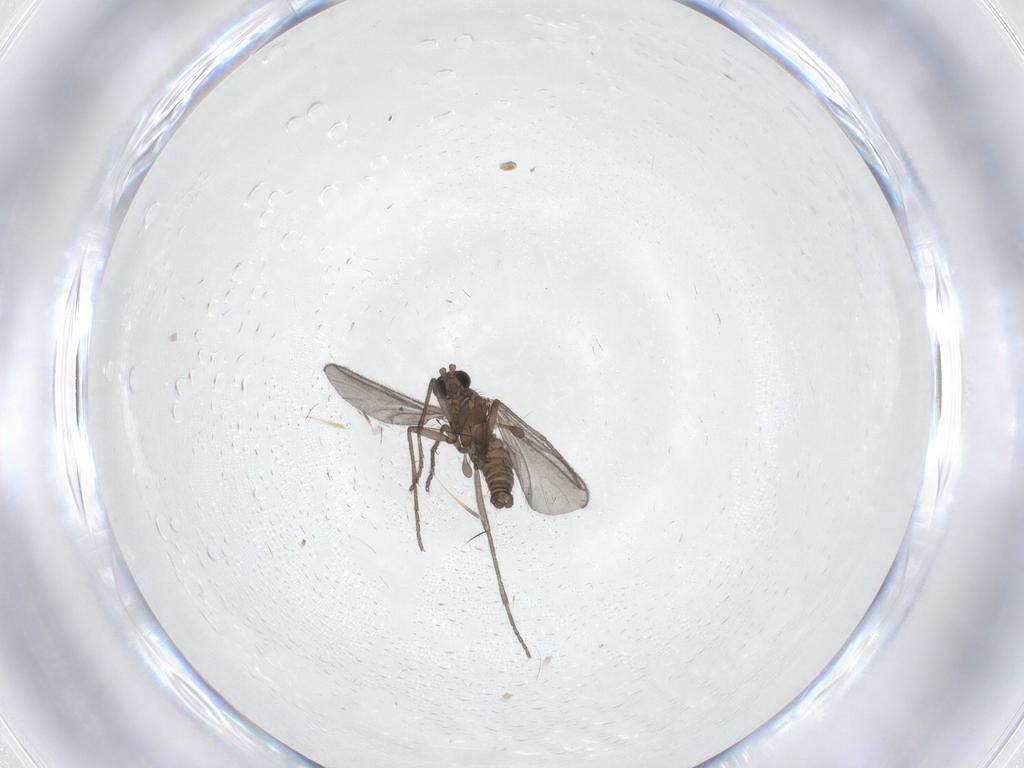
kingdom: Animalia
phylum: Arthropoda
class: Insecta
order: Diptera
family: Sciaridae
